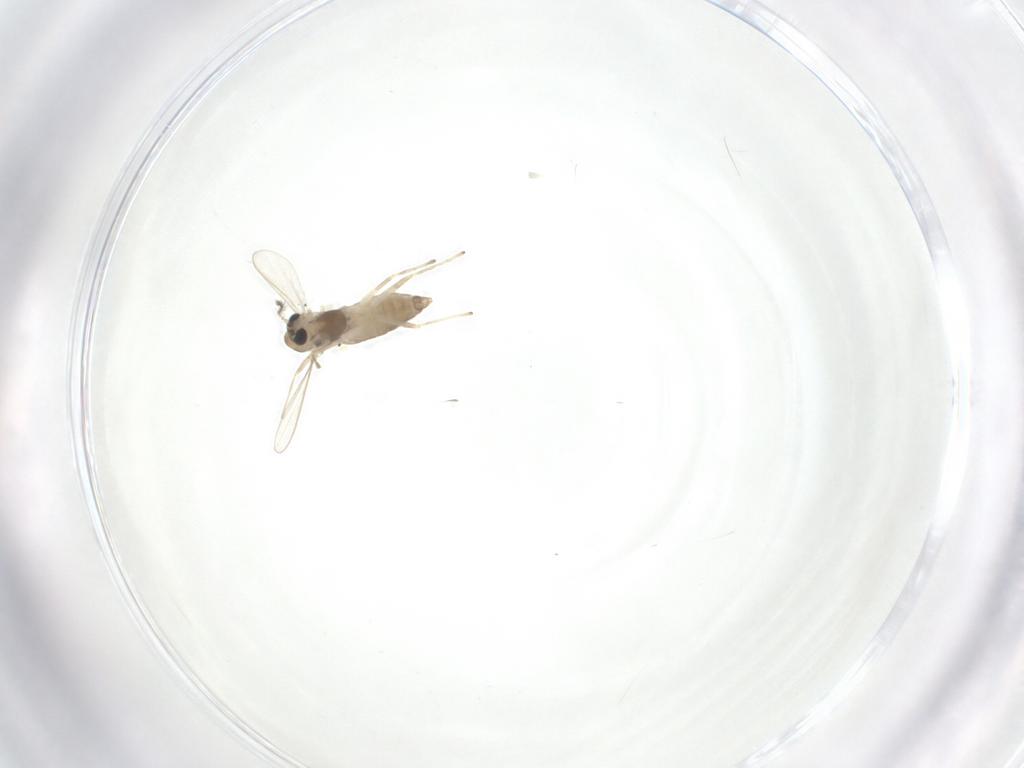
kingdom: Animalia
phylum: Arthropoda
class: Insecta
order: Diptera
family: Chironomidae
